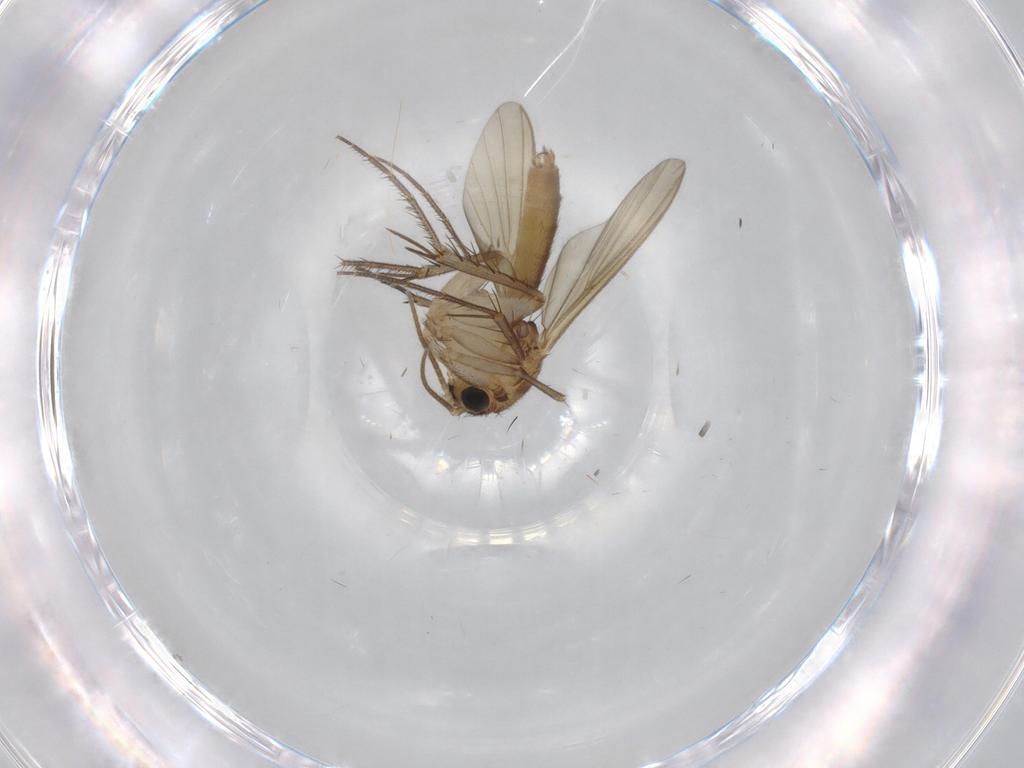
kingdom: Animalia
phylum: Arthropoda
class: Insecta
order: Diptera
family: Mycetophilidae
